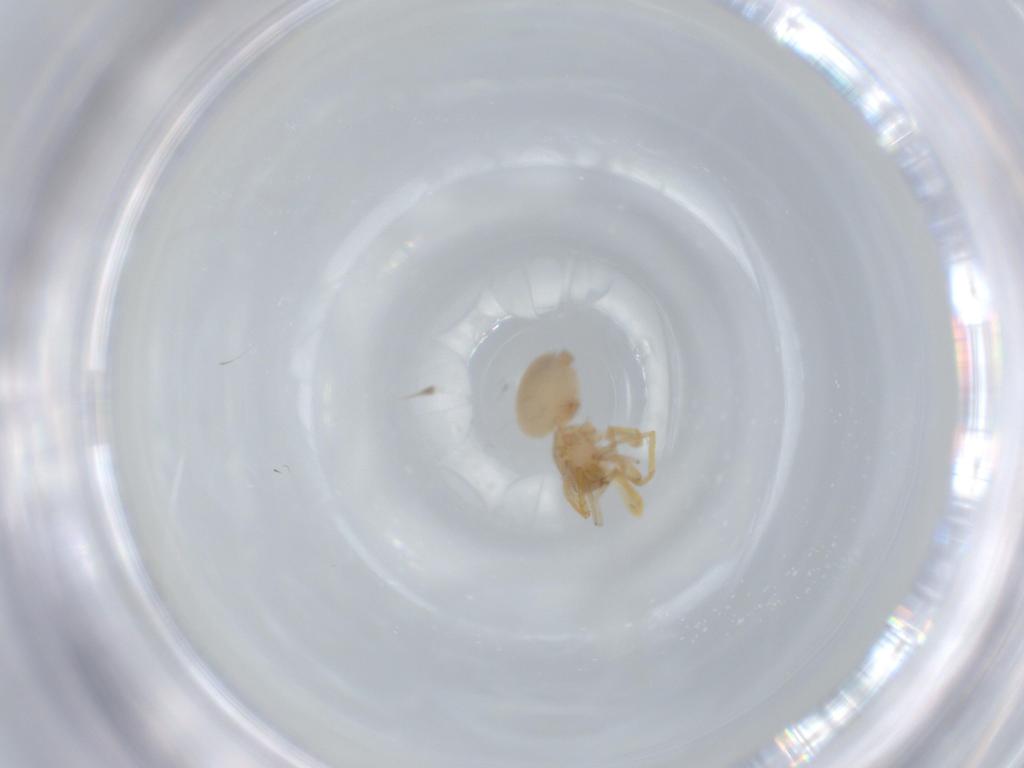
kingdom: Animalia
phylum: Arthropoda
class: Arachnida
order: Araneae
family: Oonopidae
